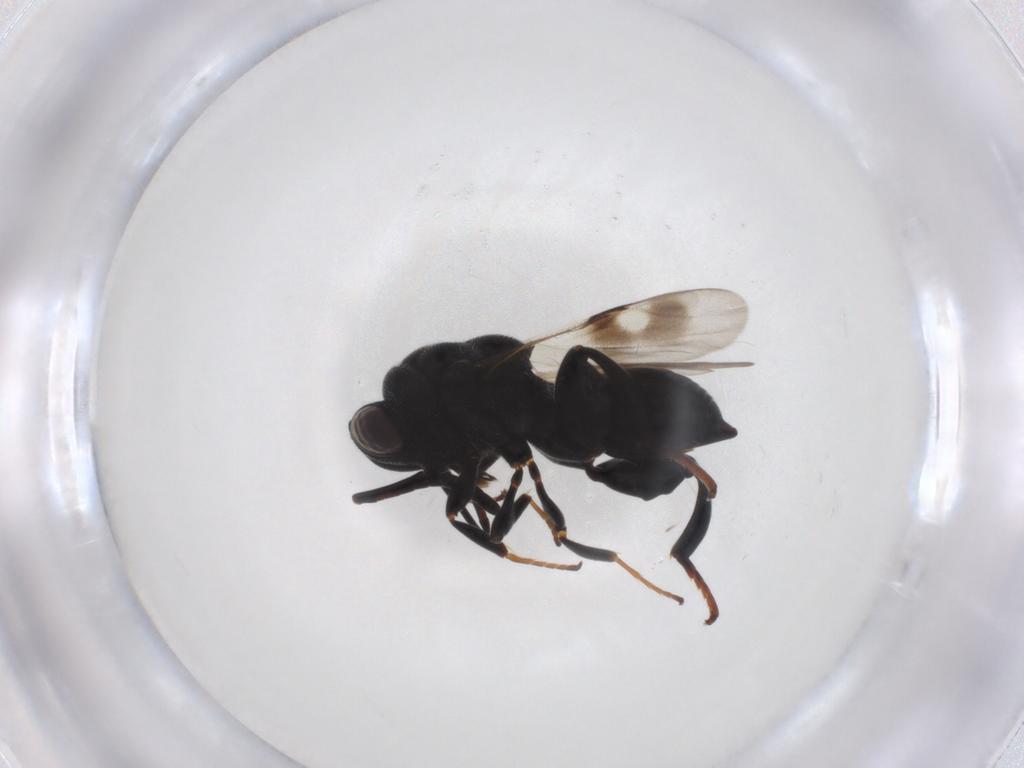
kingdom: Animalia
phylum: Arthropoda
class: Insecta
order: Hymenoptera
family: Chalcididae
